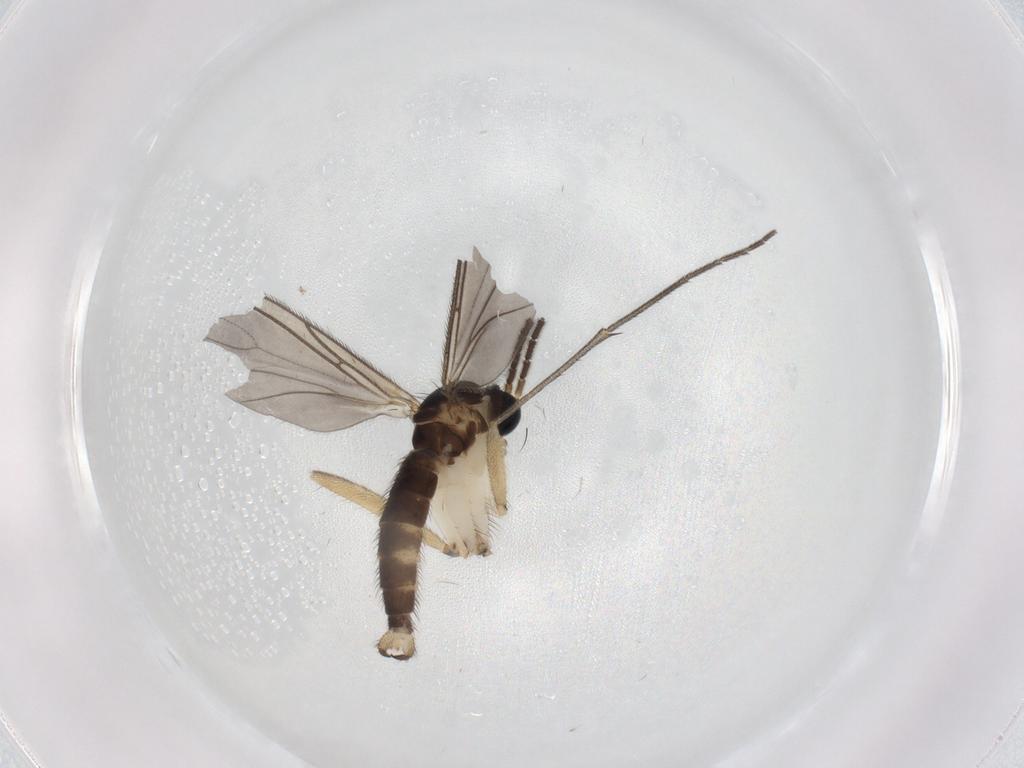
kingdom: Animalia
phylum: Arthropoda
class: Insecta
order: Diptera
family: Sciaridae
